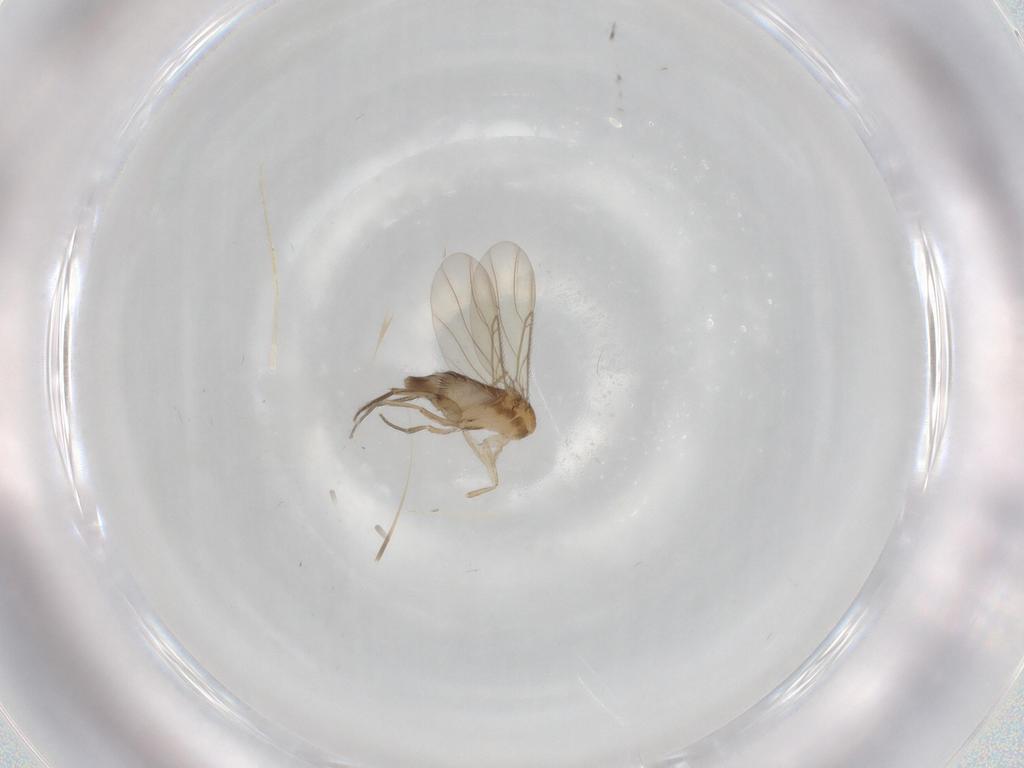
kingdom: Animalia
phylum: Arthropoda
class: Insecta
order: Diptera
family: Phoridae
